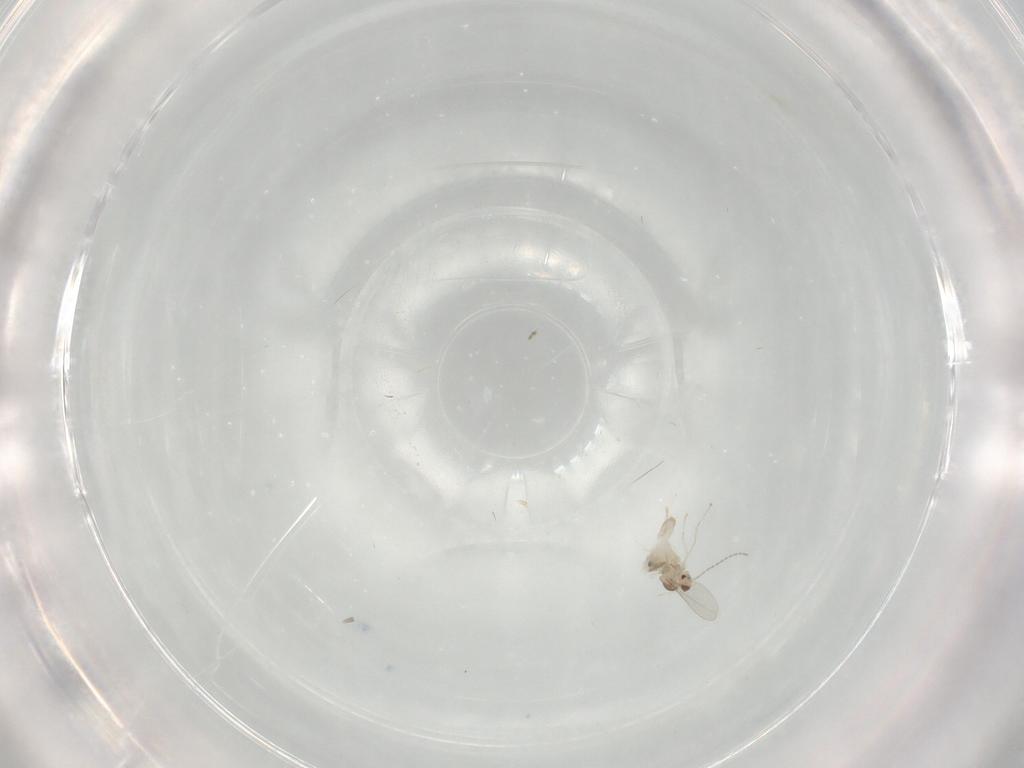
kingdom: Animalia
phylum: Arthropoda
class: Insecta
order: Diptera
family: Cecidomyiidae
